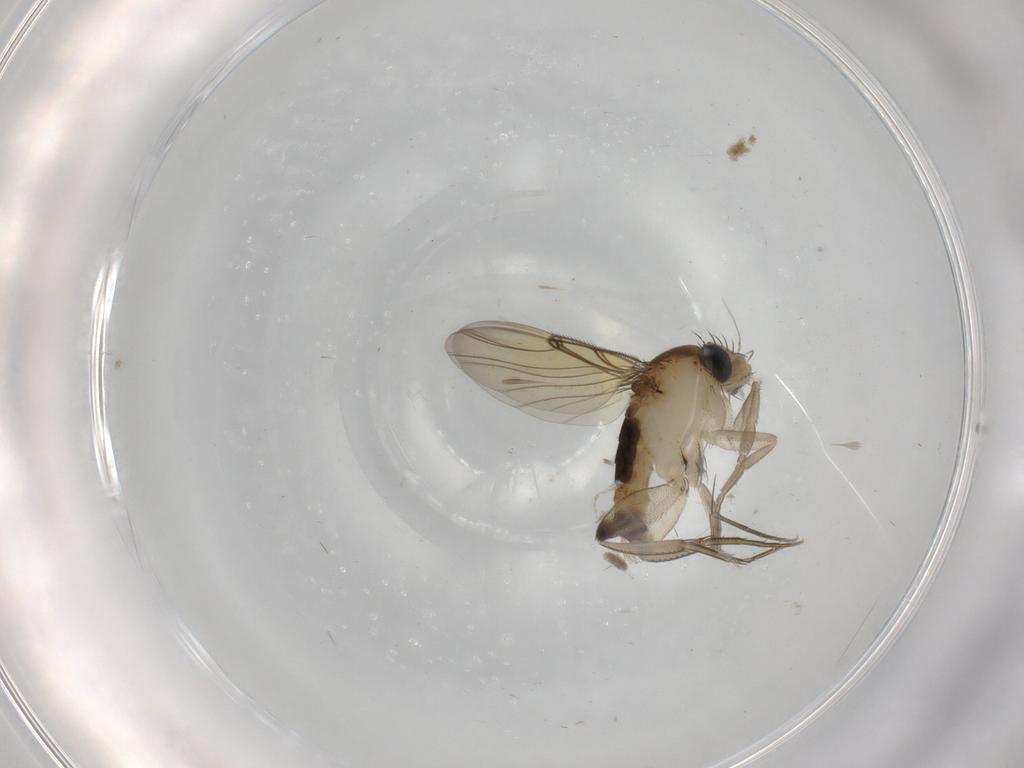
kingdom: Animalia
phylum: Arthropoda
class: Insecta
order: Diptera
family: Phoridae
